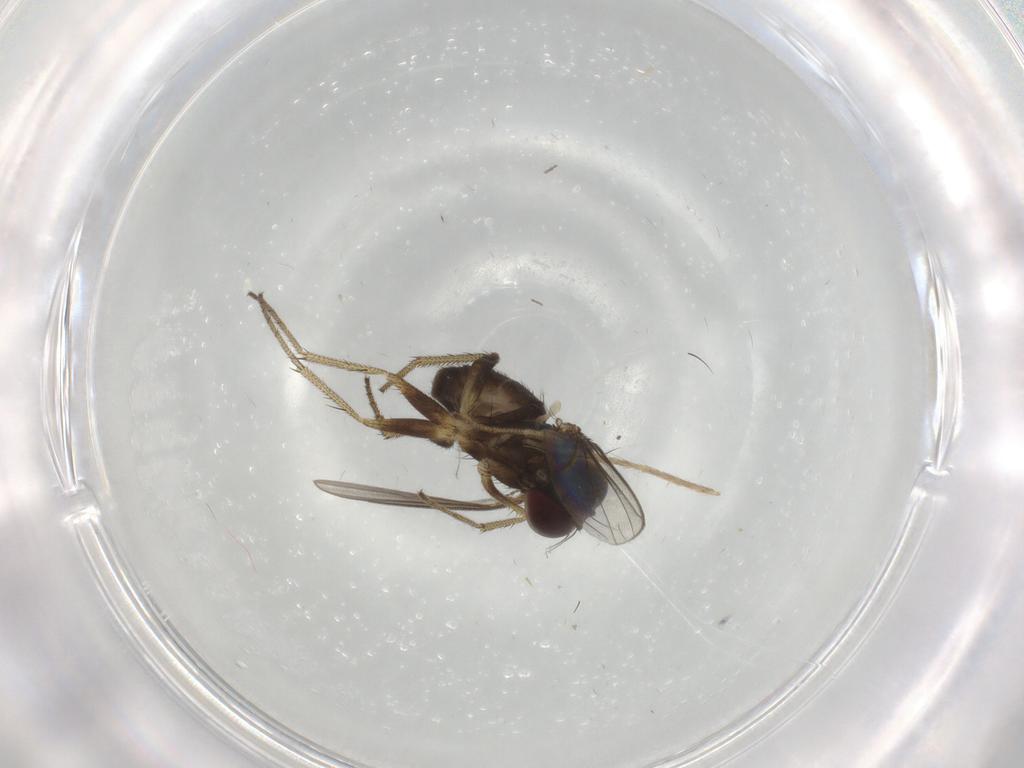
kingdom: Animalia
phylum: Arthropoda
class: Insecta
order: Diptera
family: Chironomidae
